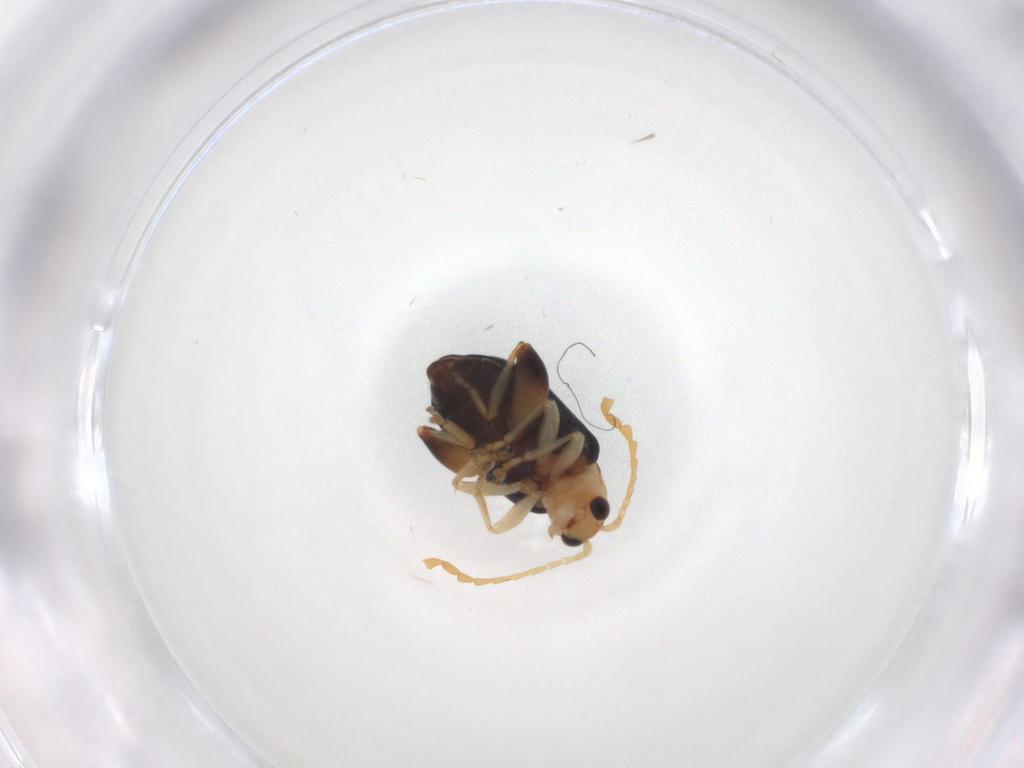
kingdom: Animalia
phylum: Arthropoda
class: Insecta
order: Coleoptera
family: Chrysomelidae
